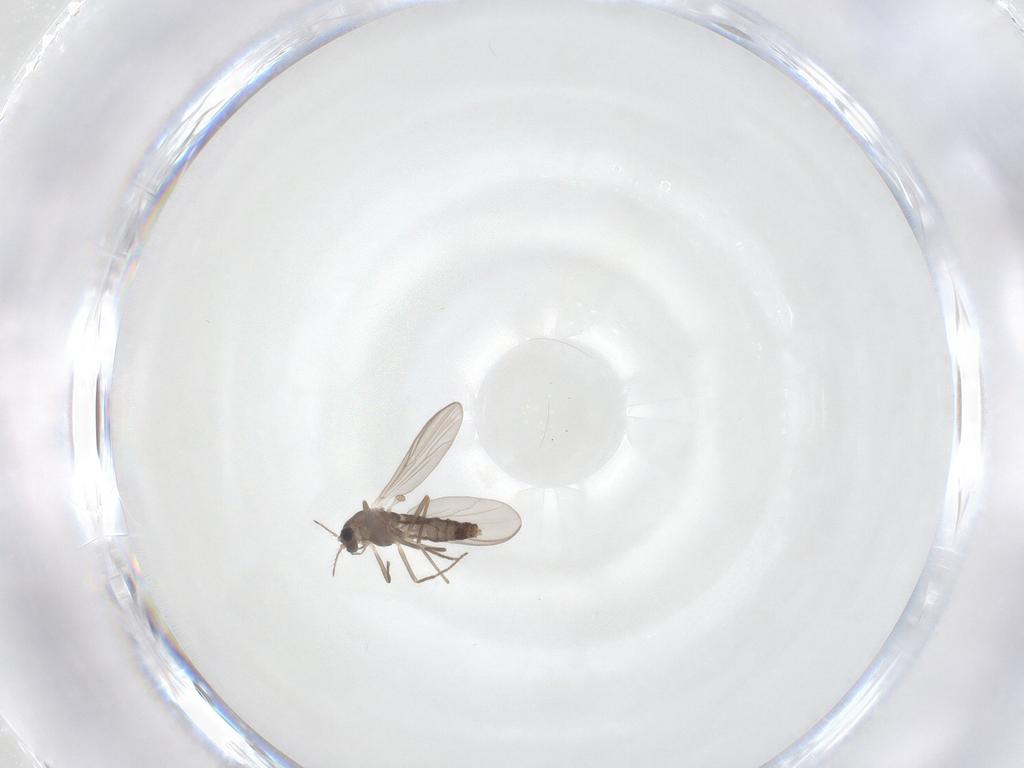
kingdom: Animalia
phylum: Arthropoda
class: Insecta
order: Diptera
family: Chironomidae
